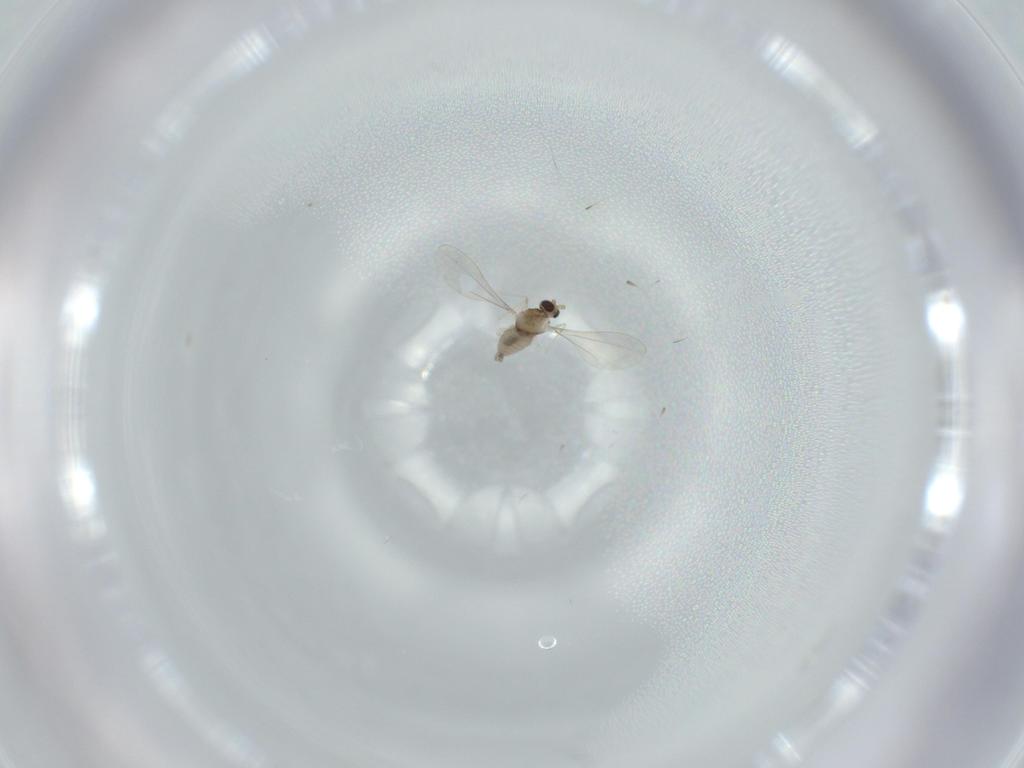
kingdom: Animalia
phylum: Arthropoda
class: Insecta
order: Diptera
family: Cecidomyiidae
